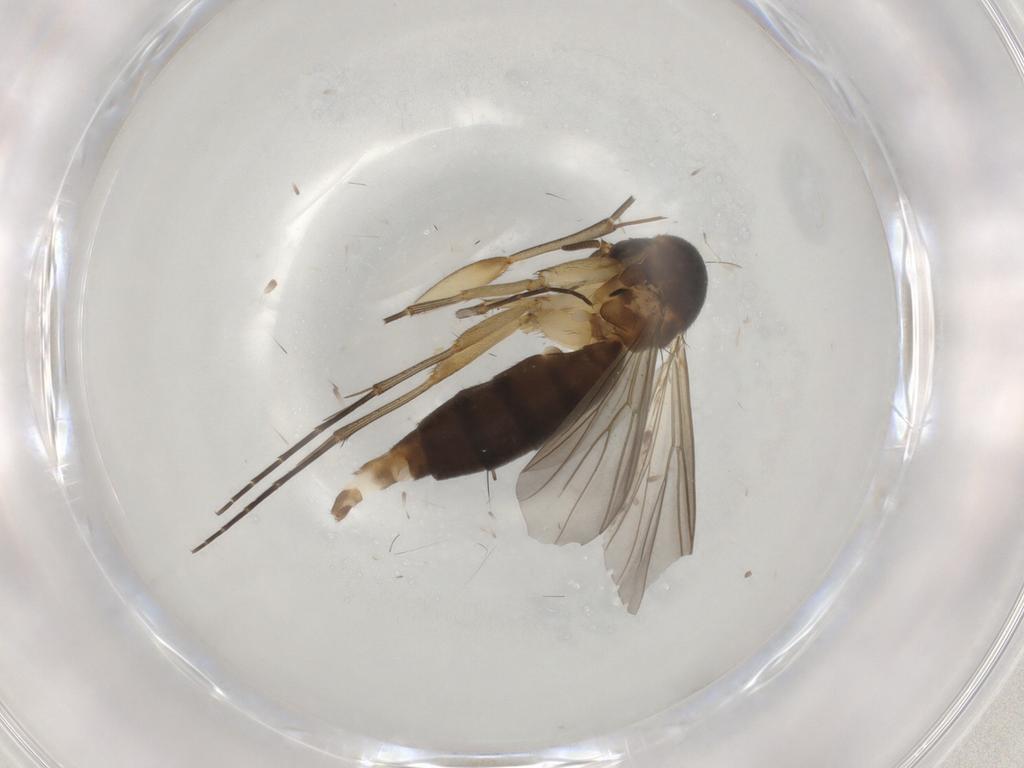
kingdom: Animalia
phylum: Arthropoda
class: Insecta
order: Diptera
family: Mycetophilidae
